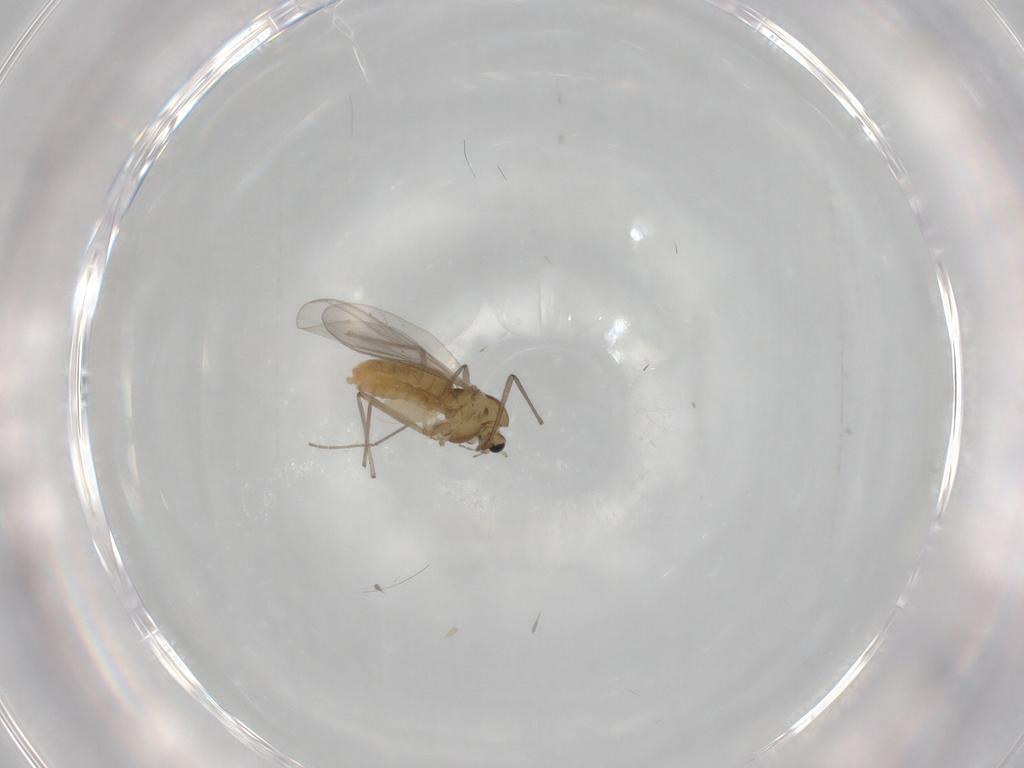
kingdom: Animalia
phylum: Arthropoda
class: Insecta
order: Diptera
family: Chironomidae
